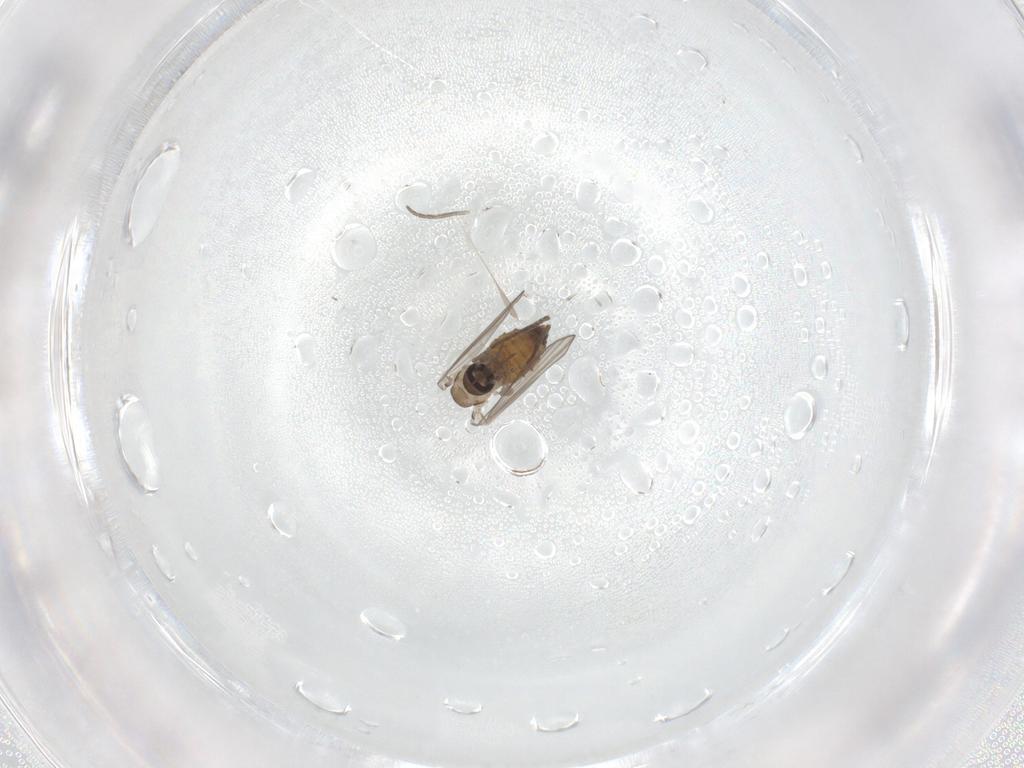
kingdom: Animalia
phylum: Arthropoda
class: Insecta
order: Diptera
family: Psychodidae
